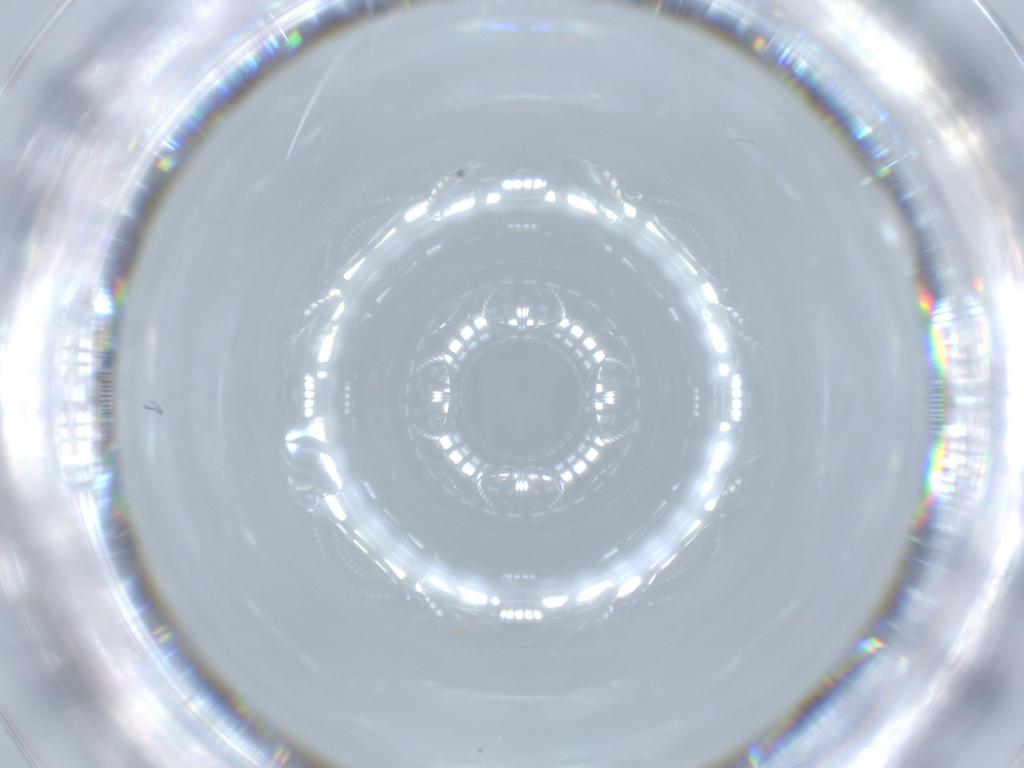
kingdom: Animalia
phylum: Arthropoda
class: Insecta
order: Diptera
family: Cecidomyiidae
